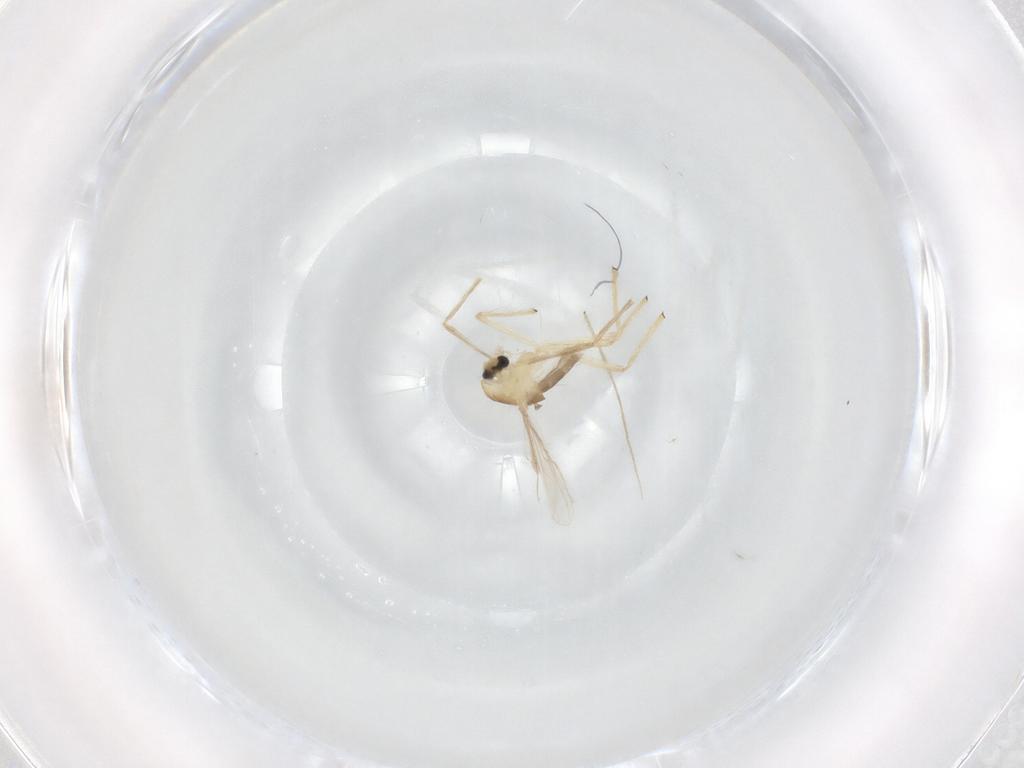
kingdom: Animalia
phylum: Arthropoda
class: Insecta
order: Diptera
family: Chironomidae
